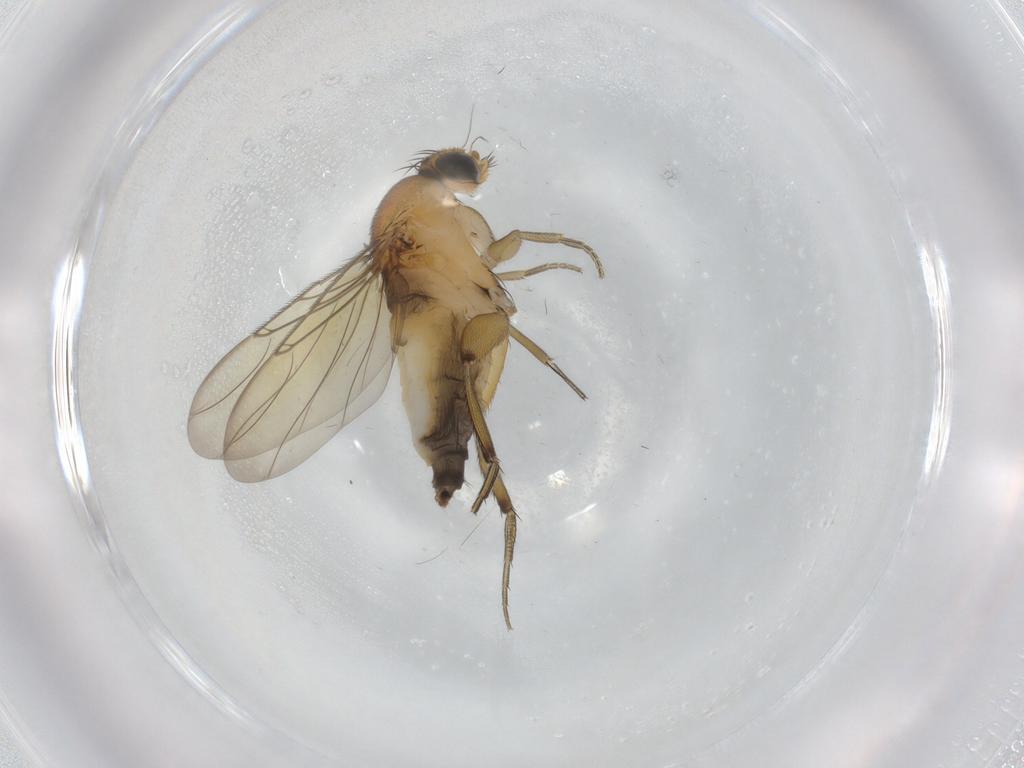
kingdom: Animalia
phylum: Arthropoda
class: Insecta
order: Diptera
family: Phoridae
